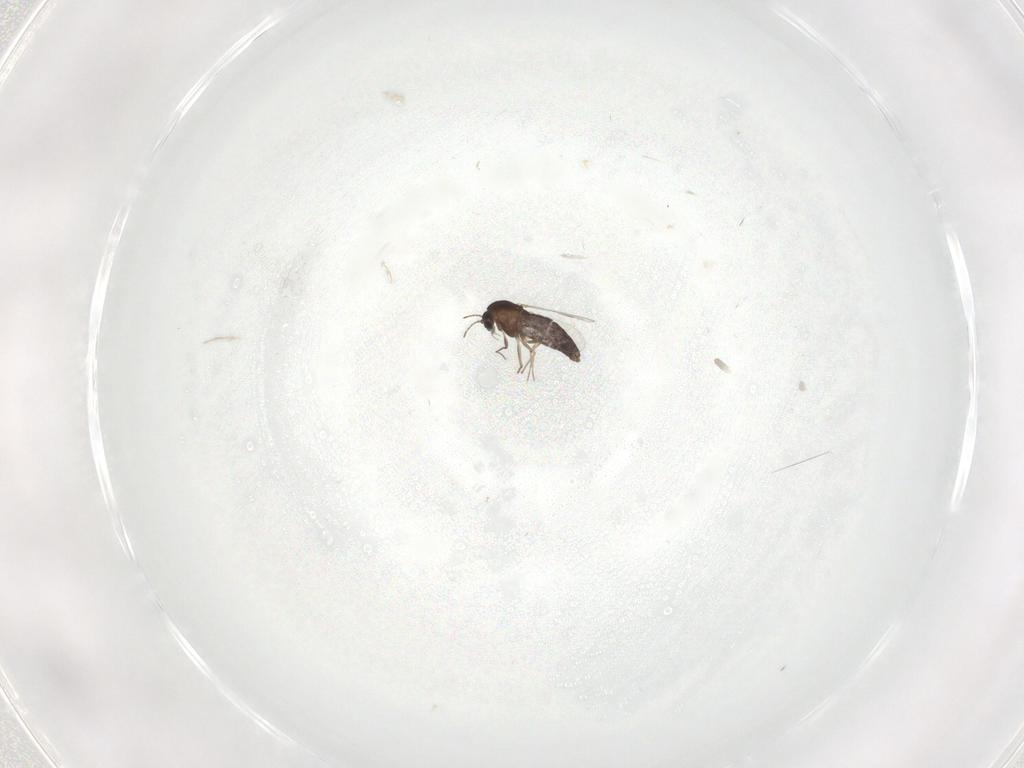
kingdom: Animalia
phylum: Arthropoda
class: Insecta
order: Diptera
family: Chironomidae
